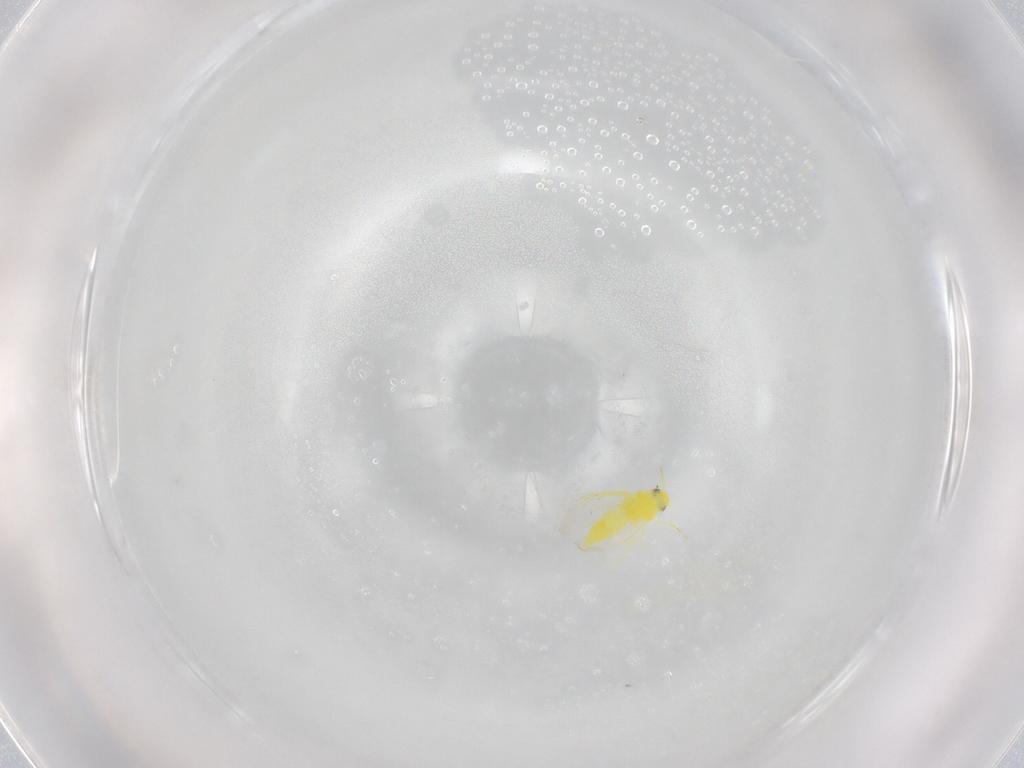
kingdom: Animalia
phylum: Arthropoda
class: Insecta
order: Hemiptera
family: Aleyrodidae
